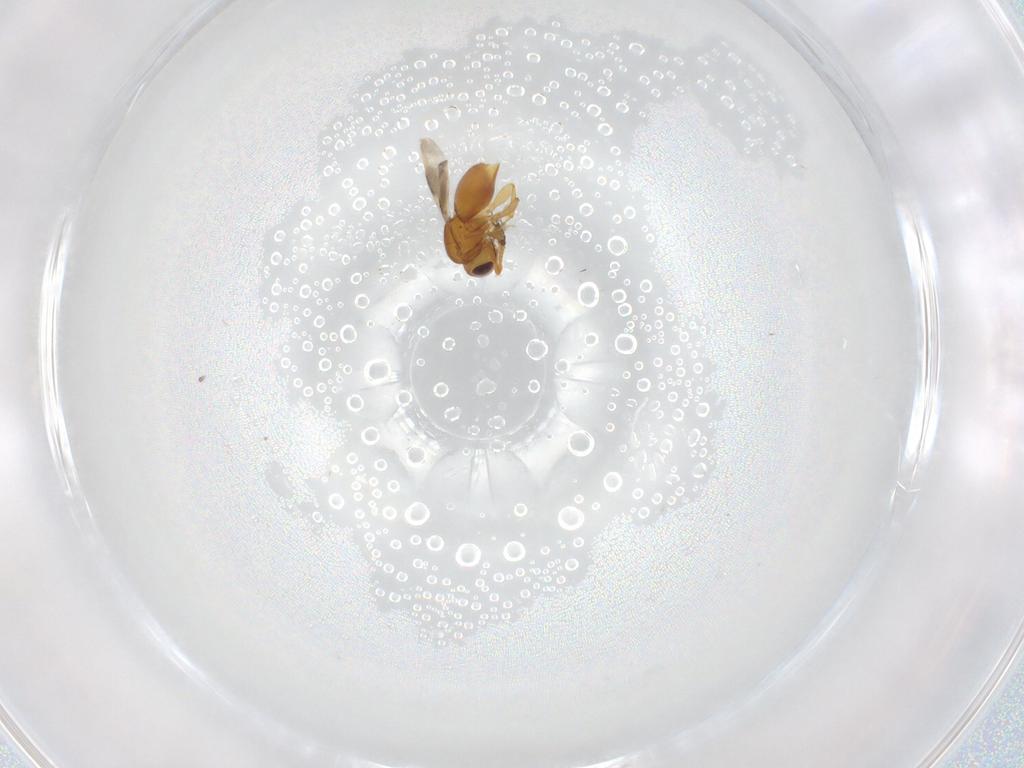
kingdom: Animalia
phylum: Arthropoda
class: Insecta
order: Hymenoptera
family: Ceraphronidae
